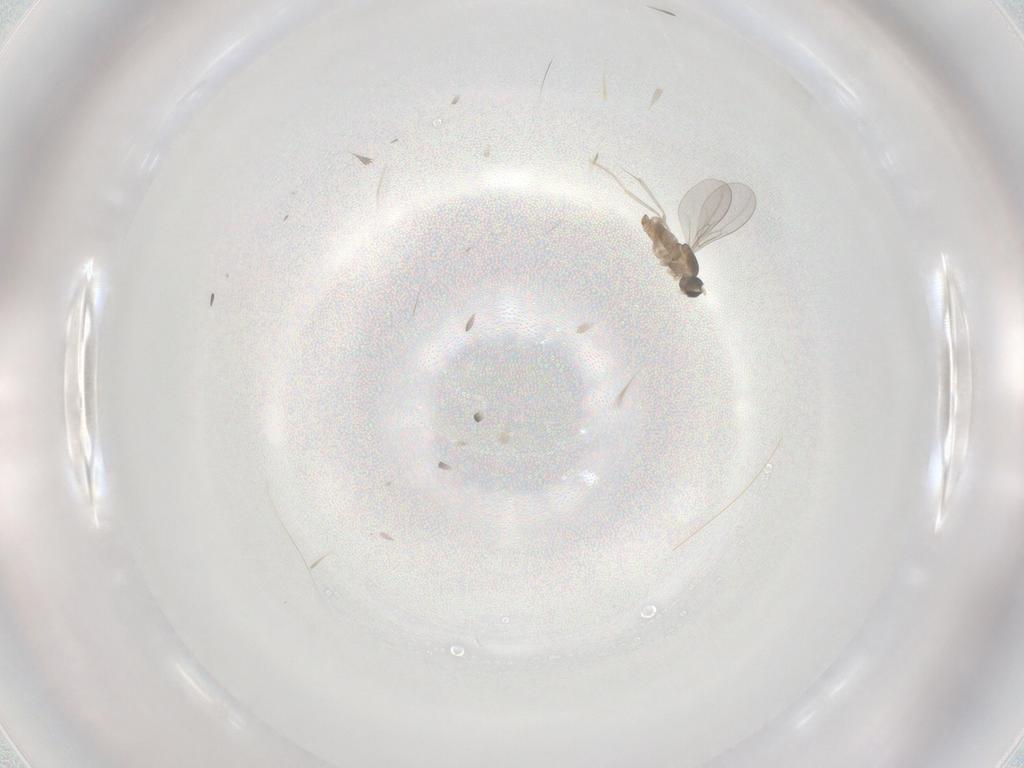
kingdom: Animalia
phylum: Arthropoda
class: Insecta
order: Diptera
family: Cecidomyiidae
